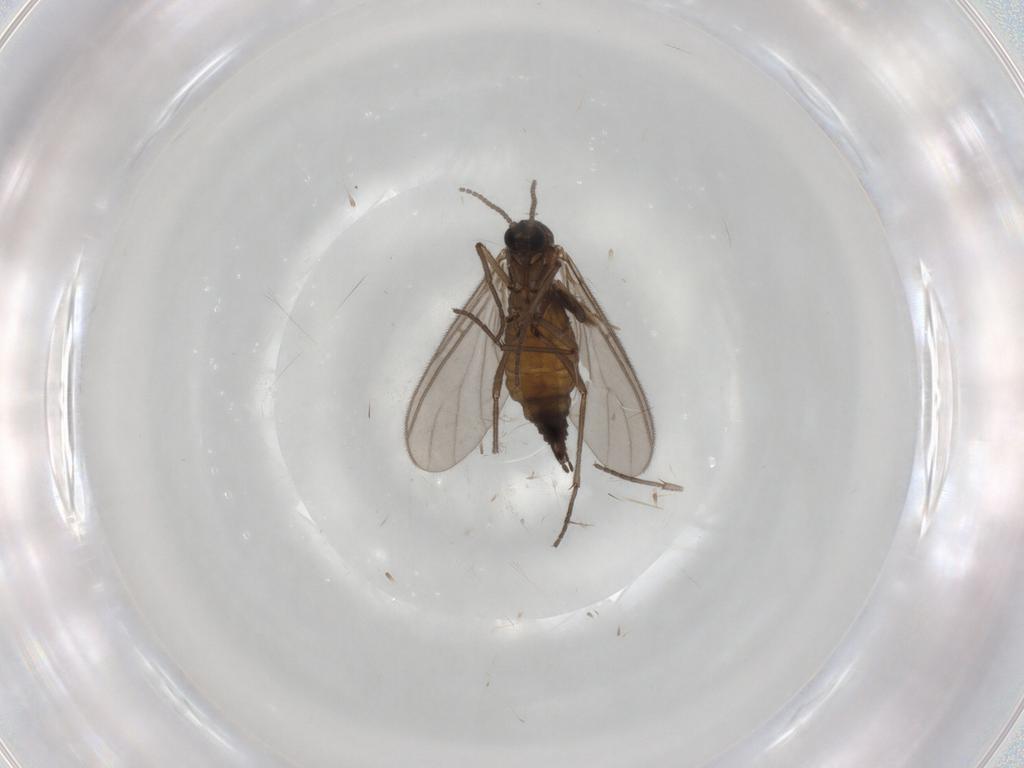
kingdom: Animalia
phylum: Arthropoda
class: Insecta
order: Diptera
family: Sciaridae
